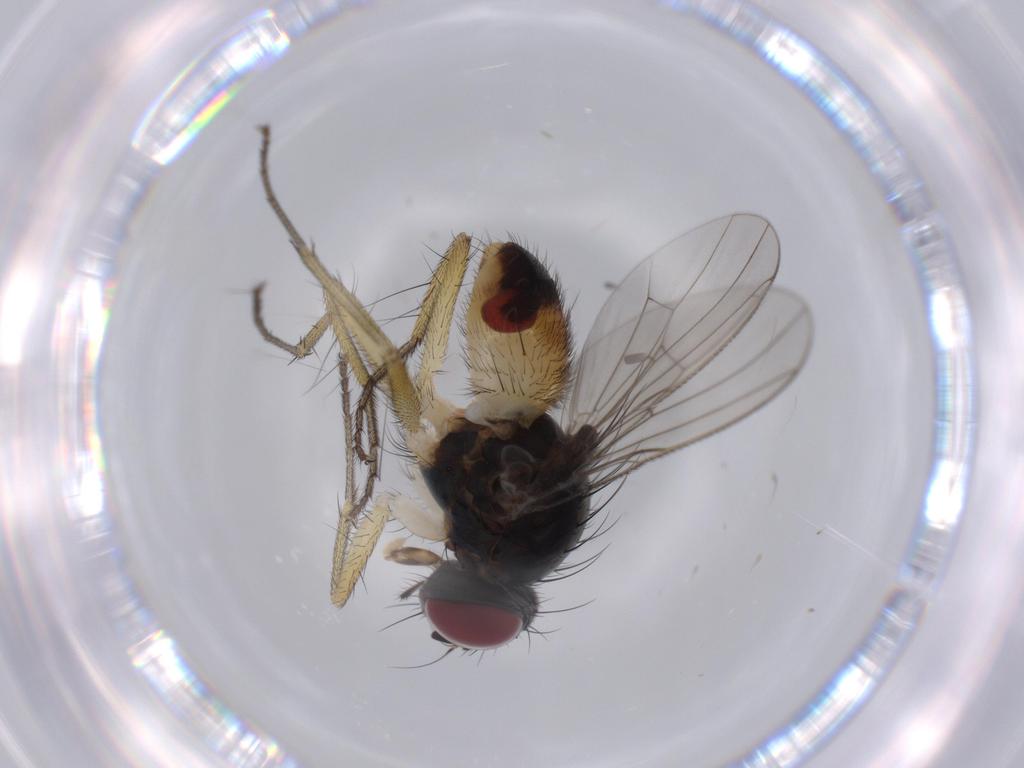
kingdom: Animalia
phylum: Arthropoda
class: Insecta
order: Diptera
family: Muscidae
